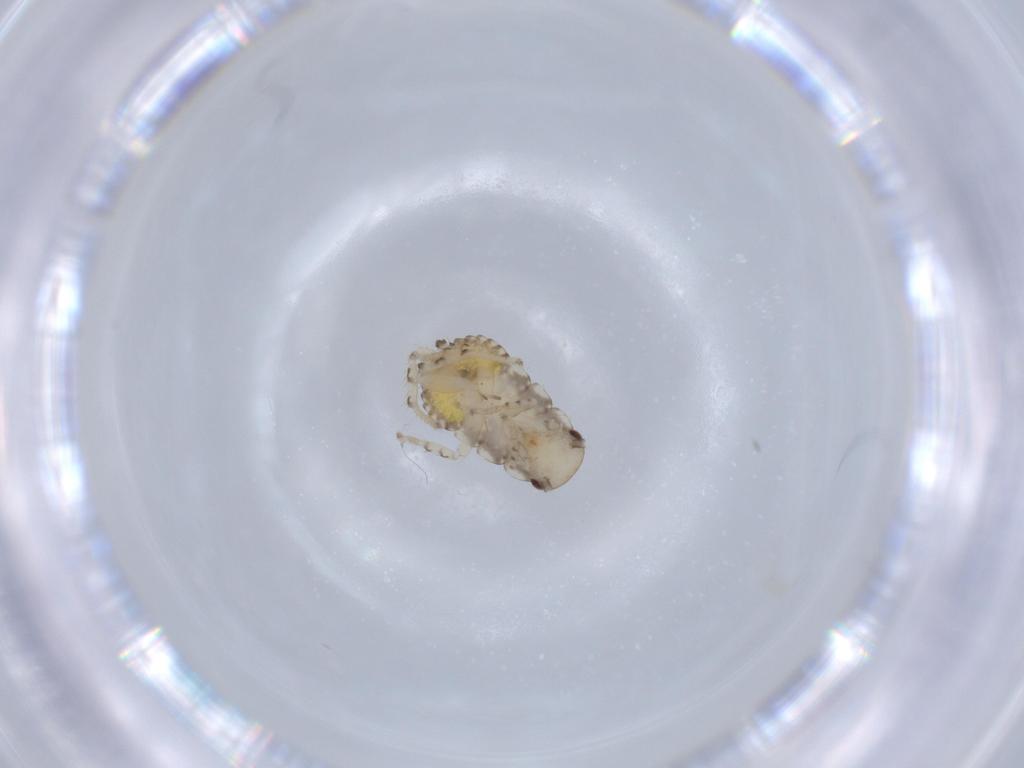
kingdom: Animalia
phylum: Arthropoda
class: Insecta
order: Blattodea
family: Ectobiidae
